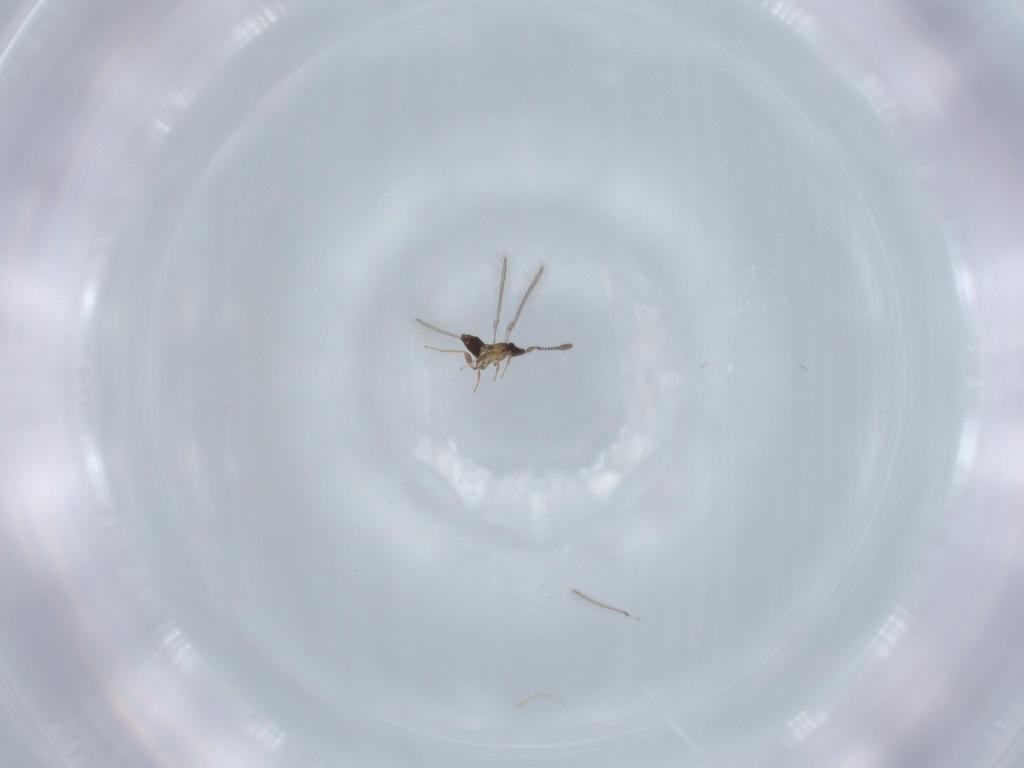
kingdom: Animalia
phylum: Arthropoda
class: Insecta
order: Hymenoptera
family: Mymaridae
